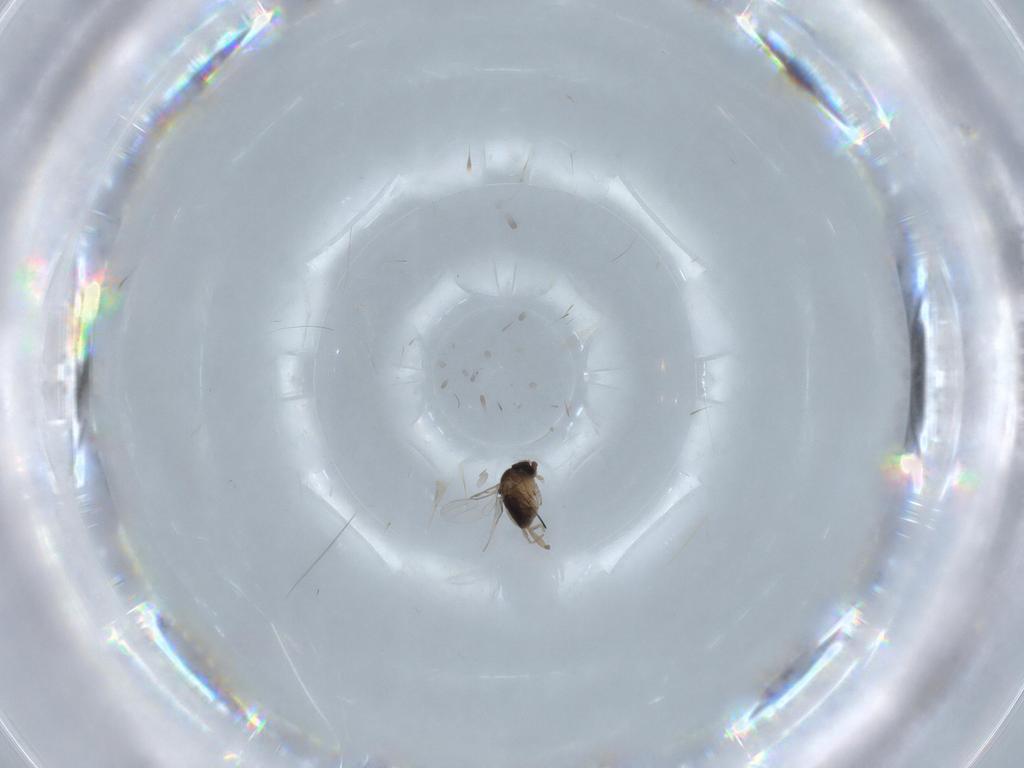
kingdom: Animalia
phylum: Arthropoda
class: Insecta
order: Diptera
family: Phoridae
